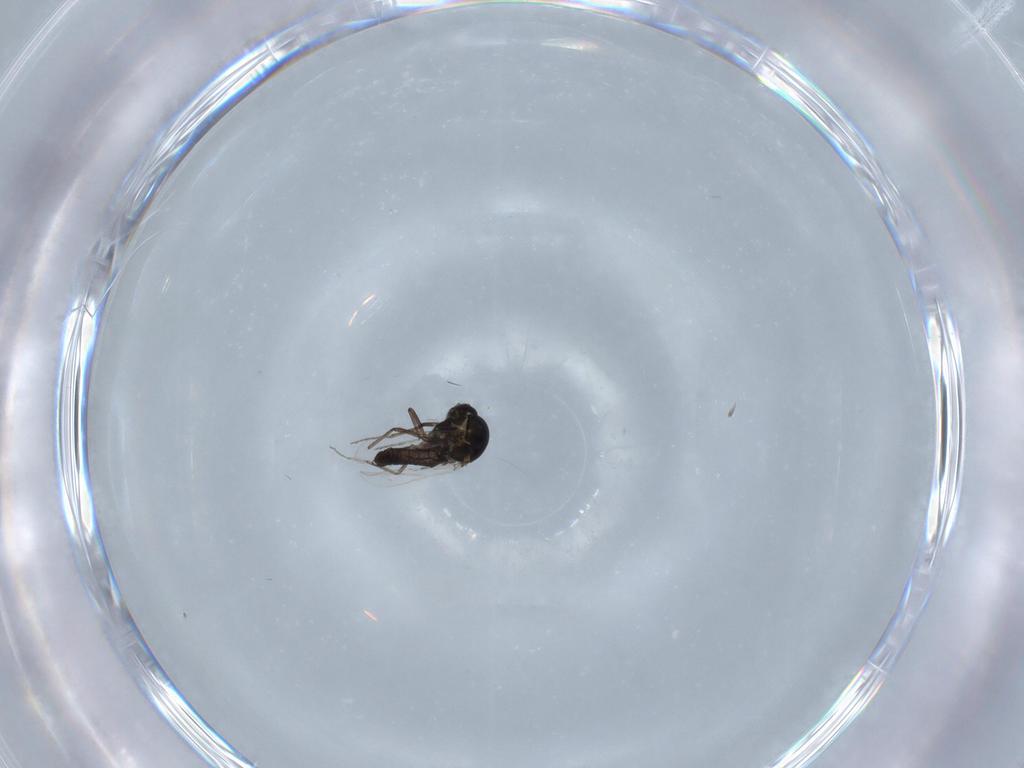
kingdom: Animalia
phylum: Arthropoda
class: Insecta
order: Diptera
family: Ceratopogonidae
